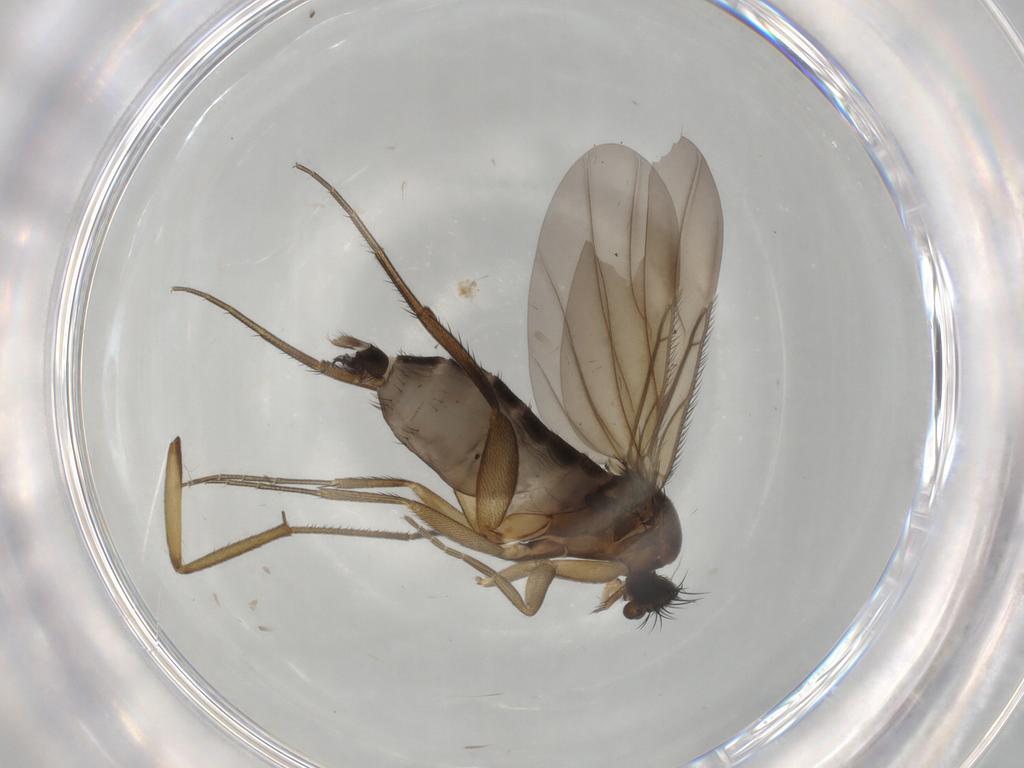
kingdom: Animalia
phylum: Arthropoda
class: Insecta
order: Diptera
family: Phoridae
